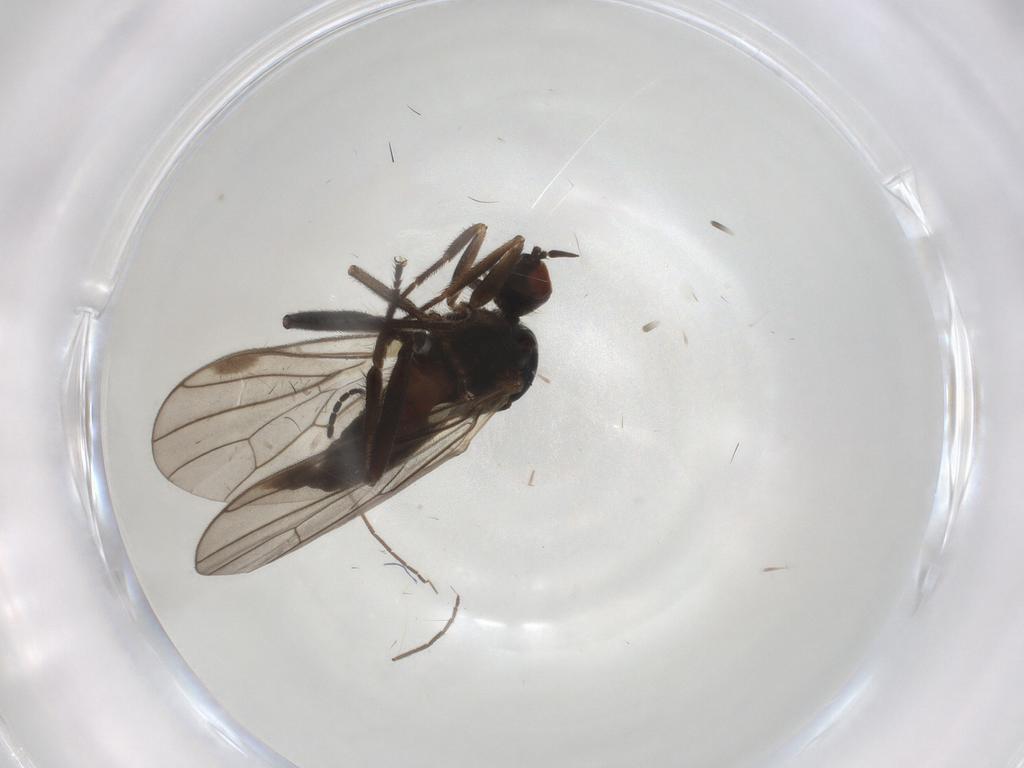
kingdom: Animalia
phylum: Arthropoda
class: Insecta
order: Diptera
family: Hybotidae
